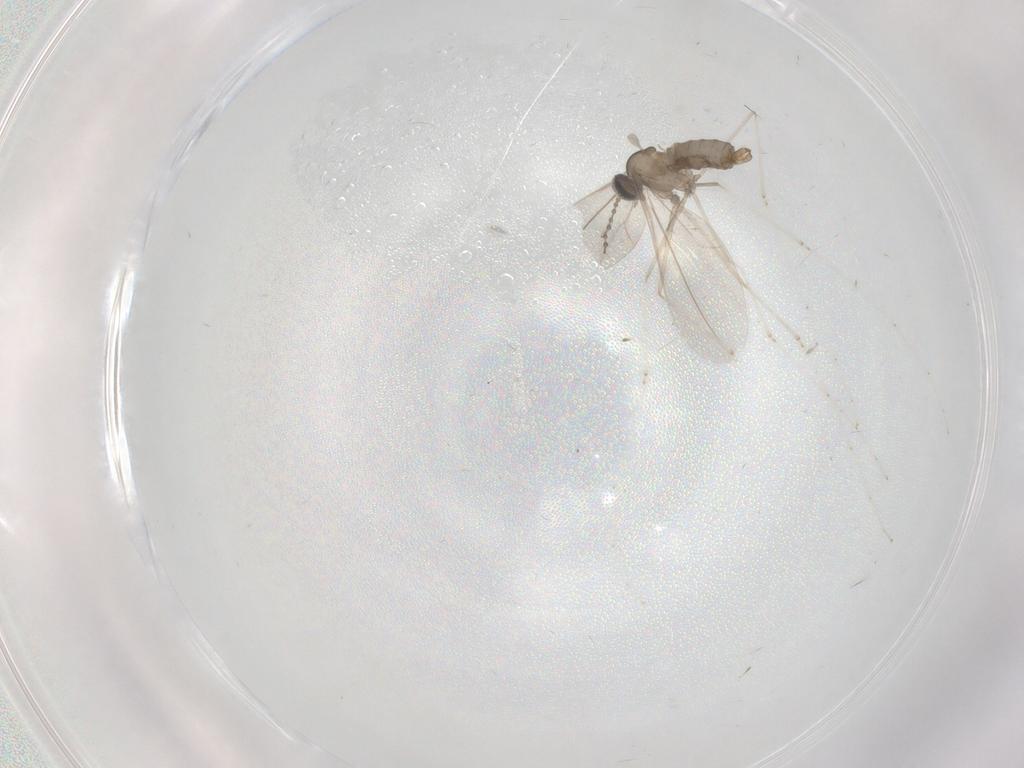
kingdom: Animalia
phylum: Arthropoda
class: Insecta
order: Diptera
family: Cecidomyiidae
